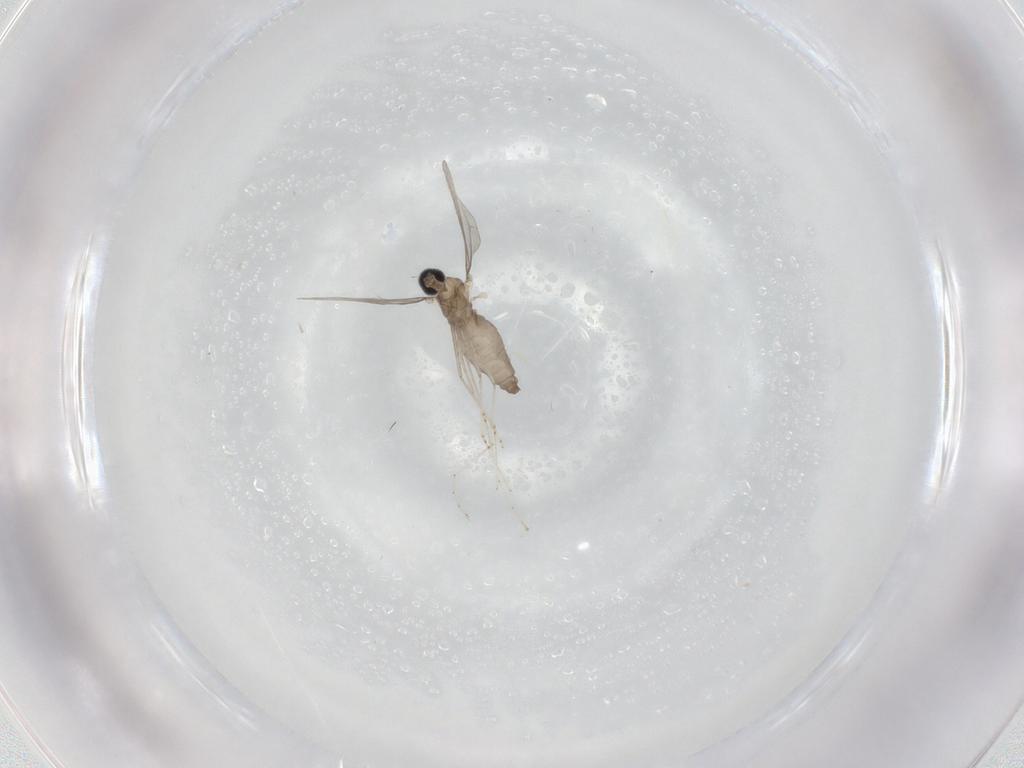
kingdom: Animalia
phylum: Arthropoda
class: Insecta
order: Diptera
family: Cecidomyiidae
